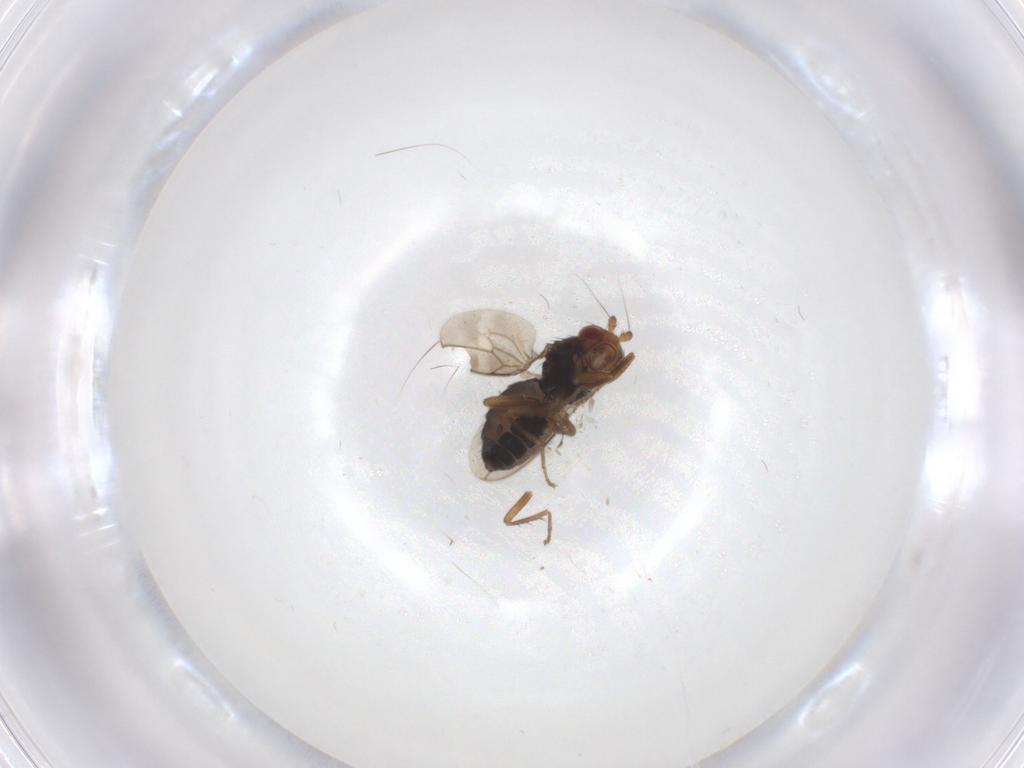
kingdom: Animalia
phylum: Arthropoda
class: Insecta
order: Diptera
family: Sphaeroceridae
